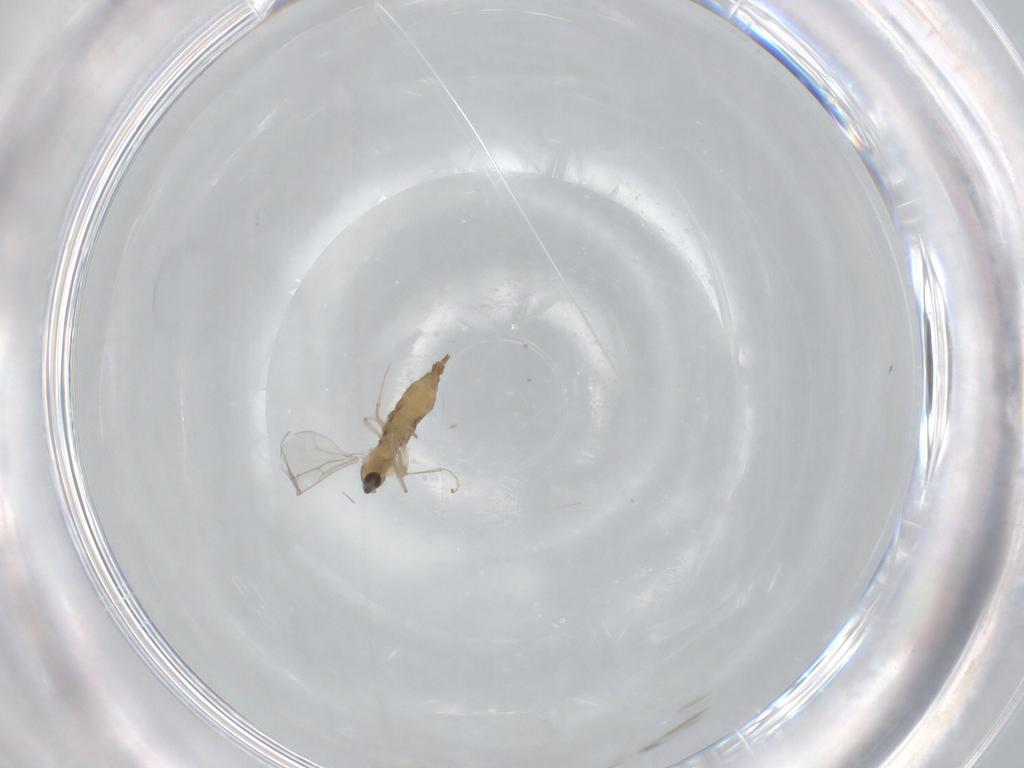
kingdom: Animalia
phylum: Arthropoda
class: Insecta
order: Diptera
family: Cecidomyiidae
